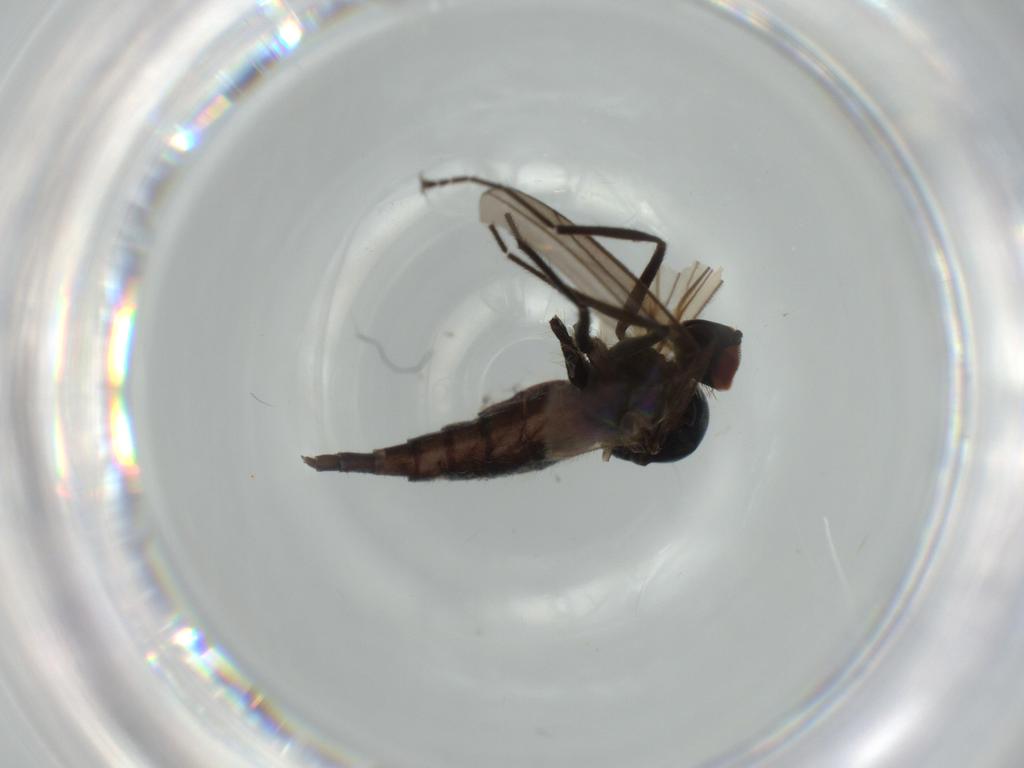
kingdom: Animalia
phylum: Arthropoda
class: Insecta
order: Diptera
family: Hybotidae
